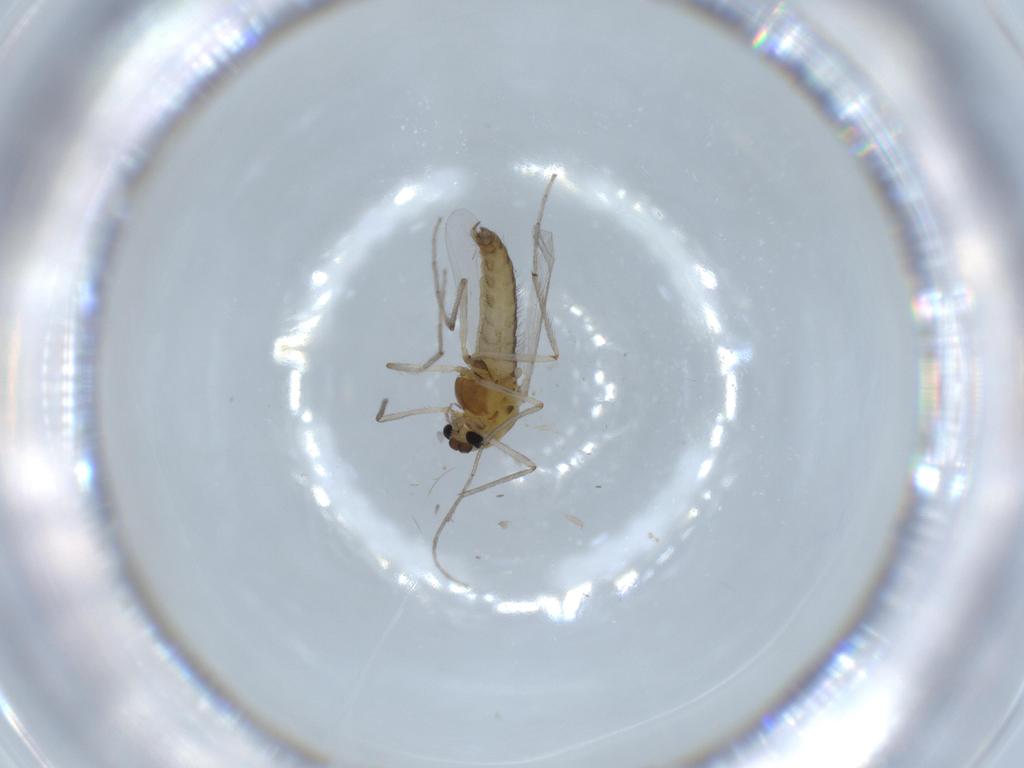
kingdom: Animalia
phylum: Arthropoda
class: Insecta
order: Diptera
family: Chironomidae
